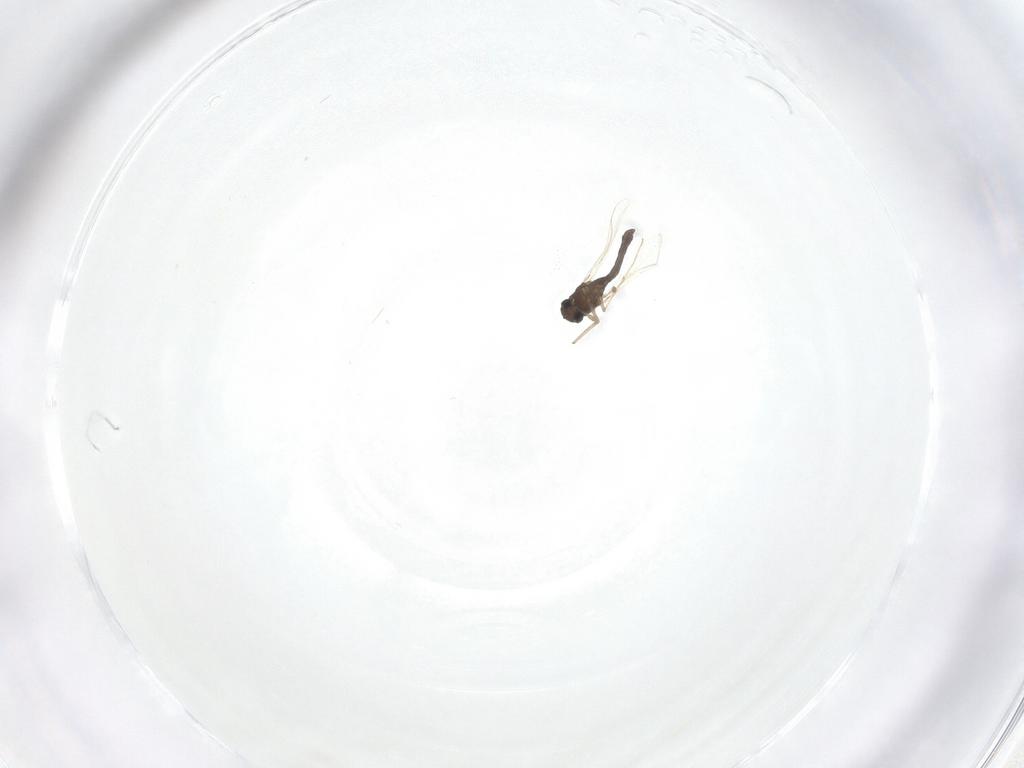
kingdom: Animalia
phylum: Arthropoda
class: Insecta
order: Diptera
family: Chironomidae
